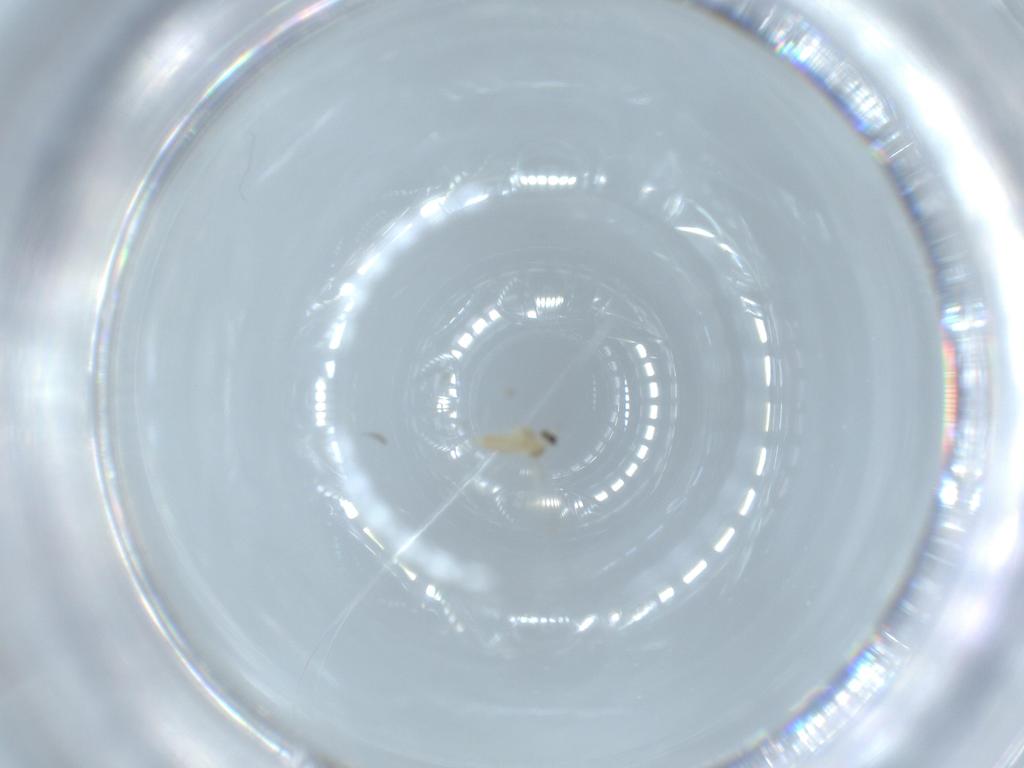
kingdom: Animalia
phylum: Arthropoda
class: Insecta
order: Diptera
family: Cecidomyiidae
